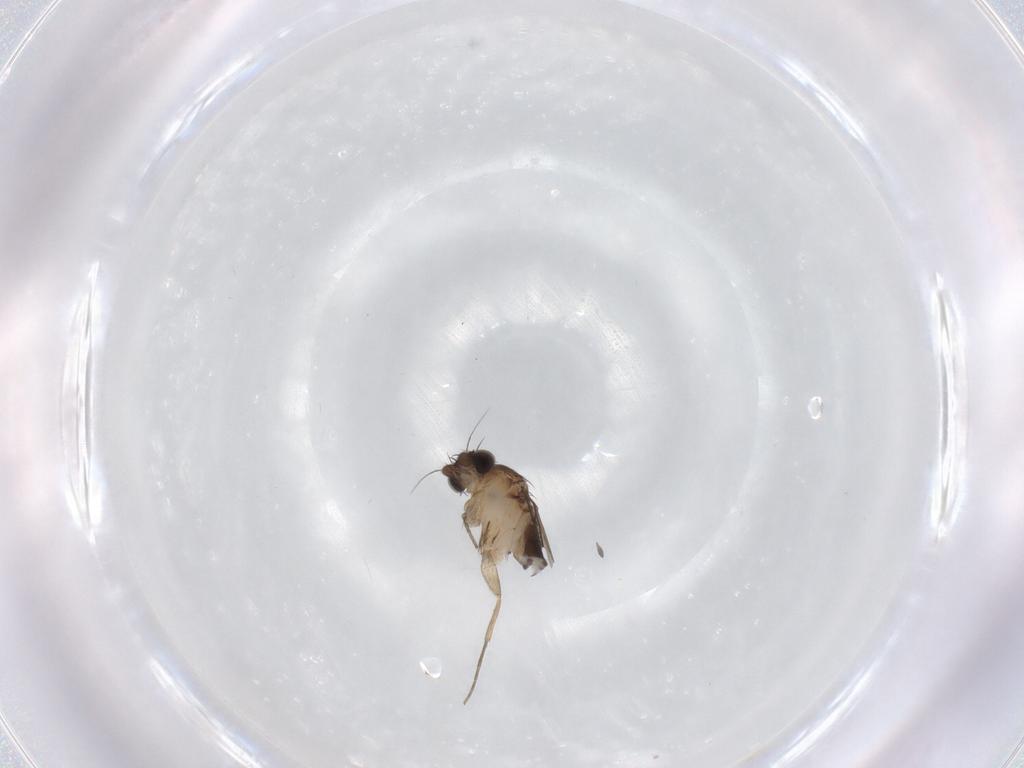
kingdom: Animalia
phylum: Arthropoda
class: Insecta
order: Diptera
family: Phoridae
